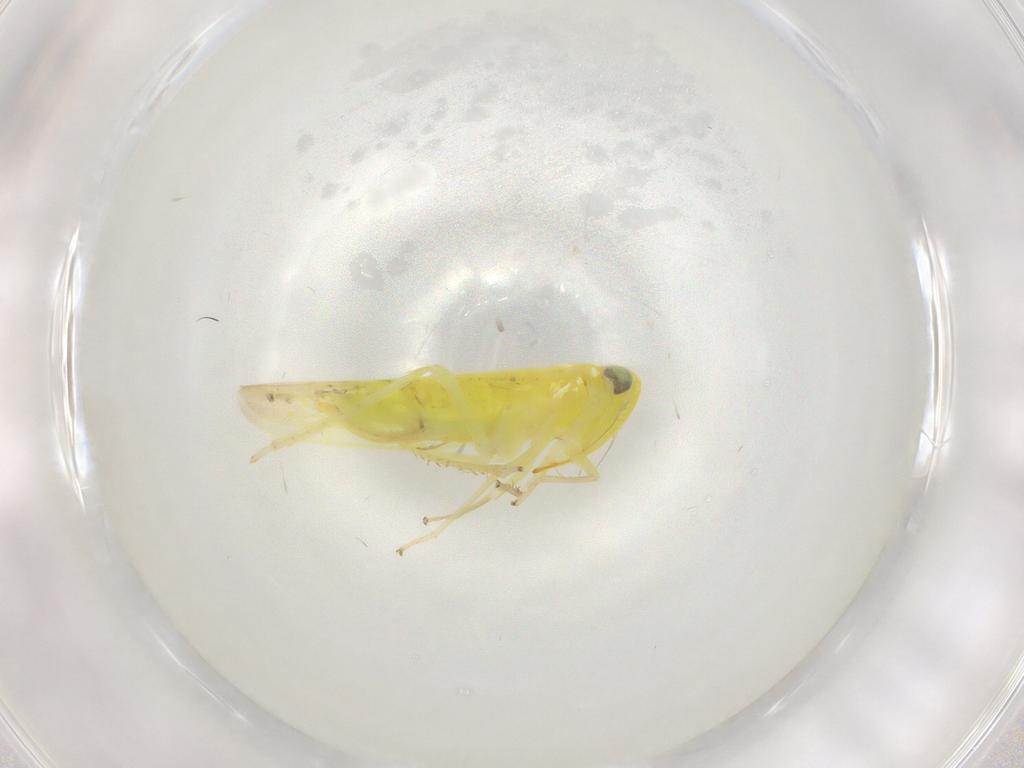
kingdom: Animalia
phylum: Arthropoda
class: Insecta
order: Hemiptera
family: Cicadellidae
